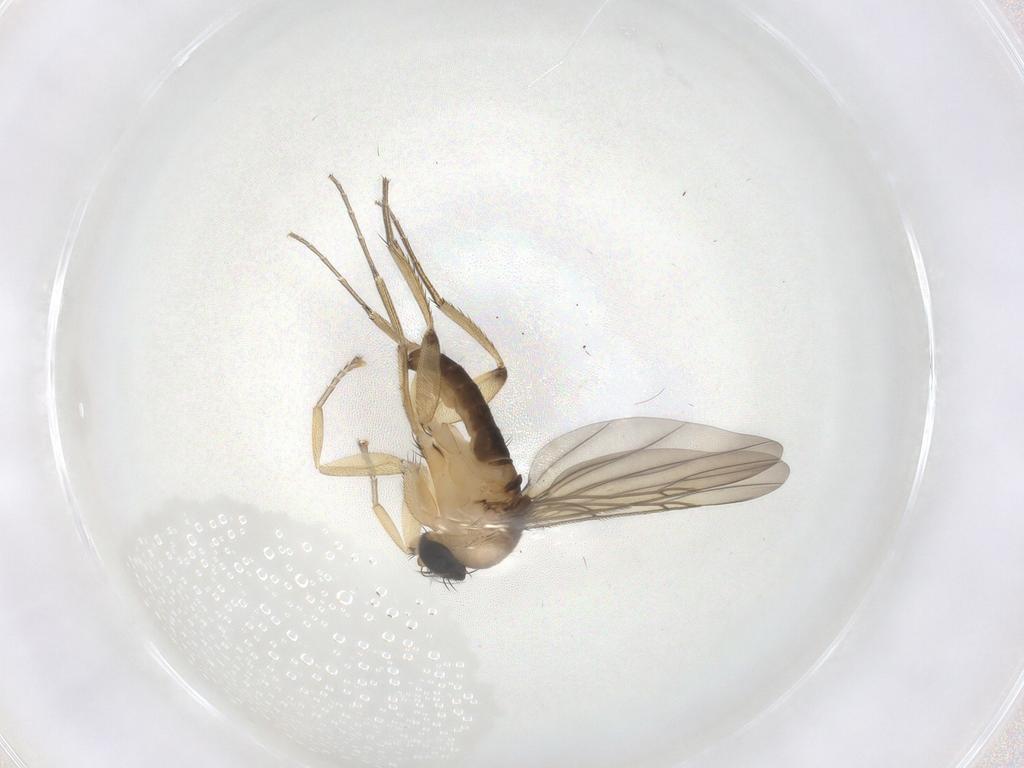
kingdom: Animalia
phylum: Arthropoda
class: Insecta
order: Diptera
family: Phoridae
